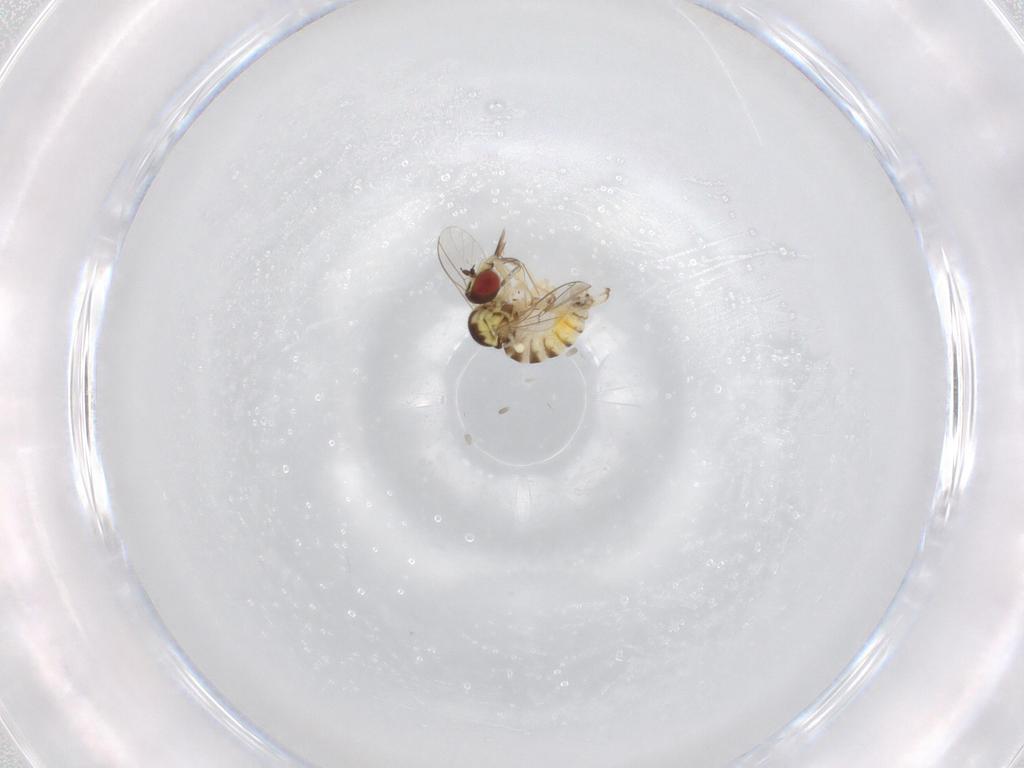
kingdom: Animalia
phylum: Arthropoda
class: Insecta
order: Diptera
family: Bombyliidae
